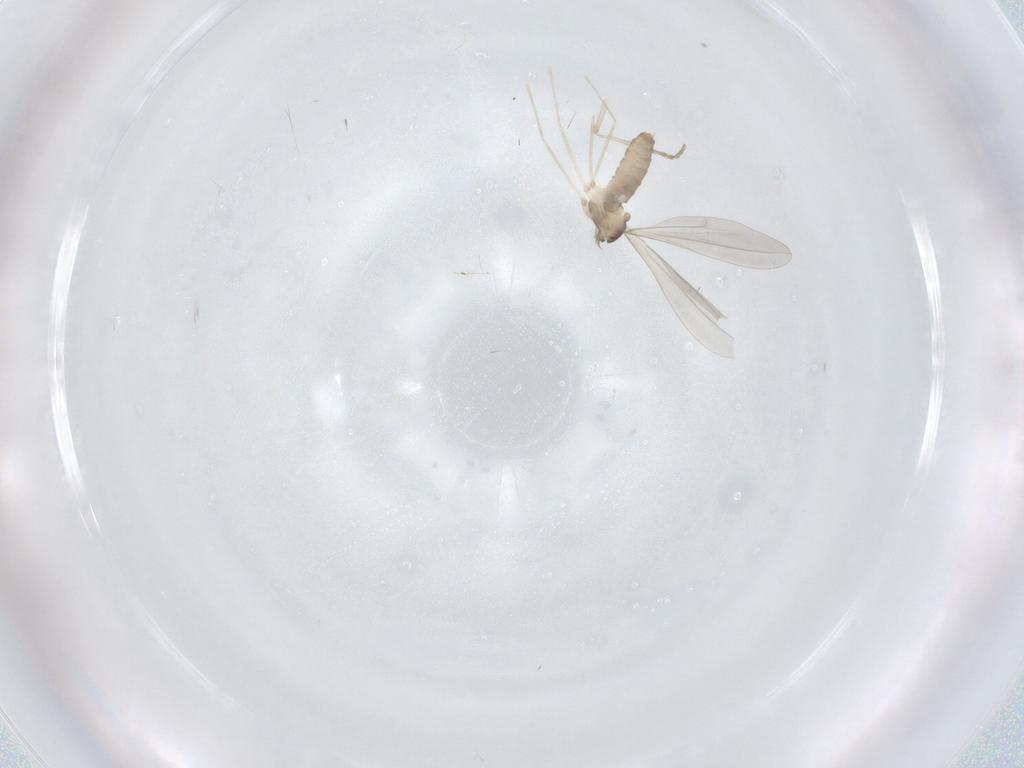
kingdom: Animalia
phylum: Arthropoda
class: Insecta
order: Diptera
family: Cecidomyiidae
